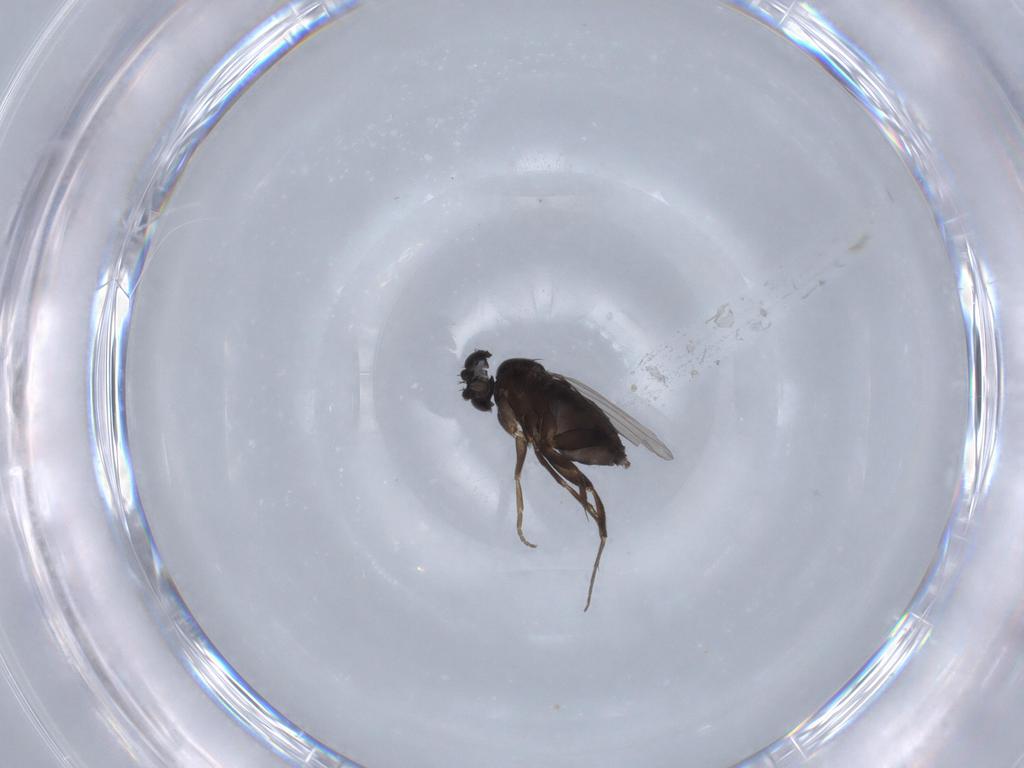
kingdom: Animalia
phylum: Arthropoda
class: Insecta
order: Diptera
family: Phoridae
